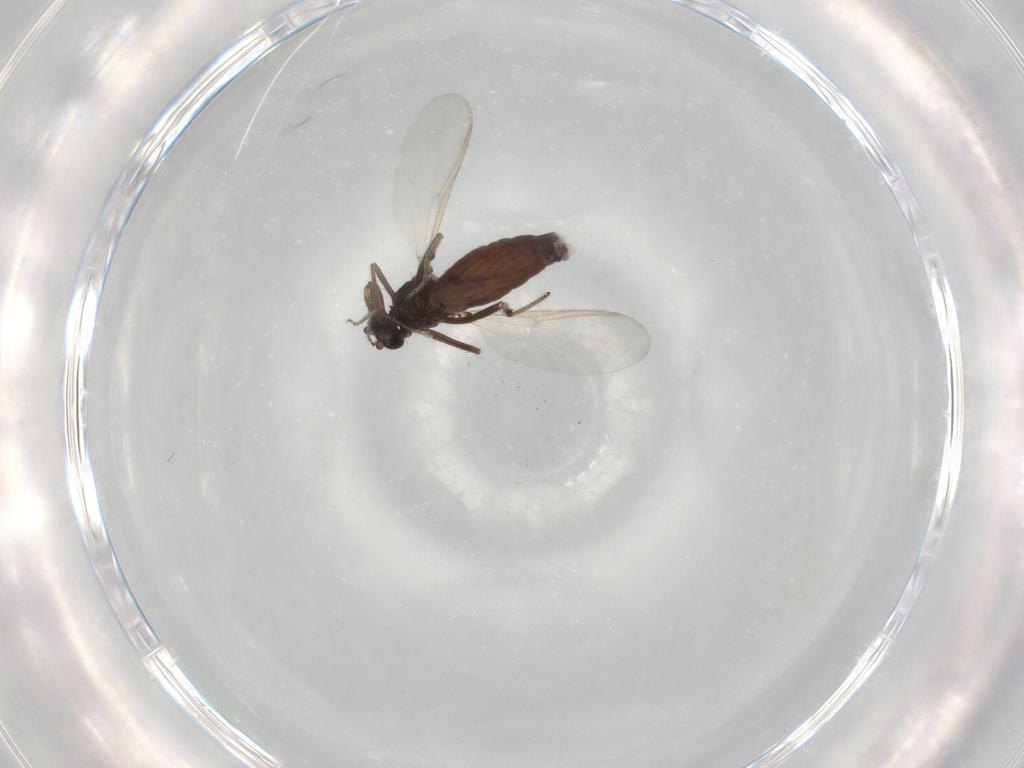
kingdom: Animalia
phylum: Arthropoda
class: Insecta
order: Diptera
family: Ceratopogonidae
